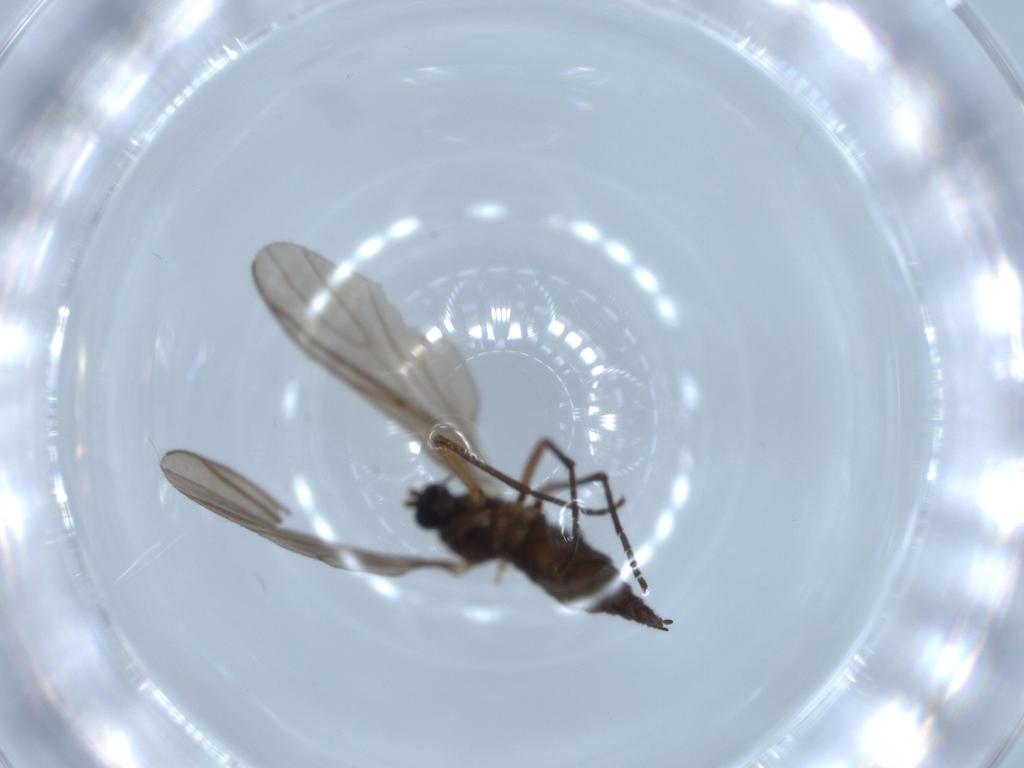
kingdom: Animalia
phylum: Arthropoda
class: Insecta
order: Diptera
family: Sciaridae
